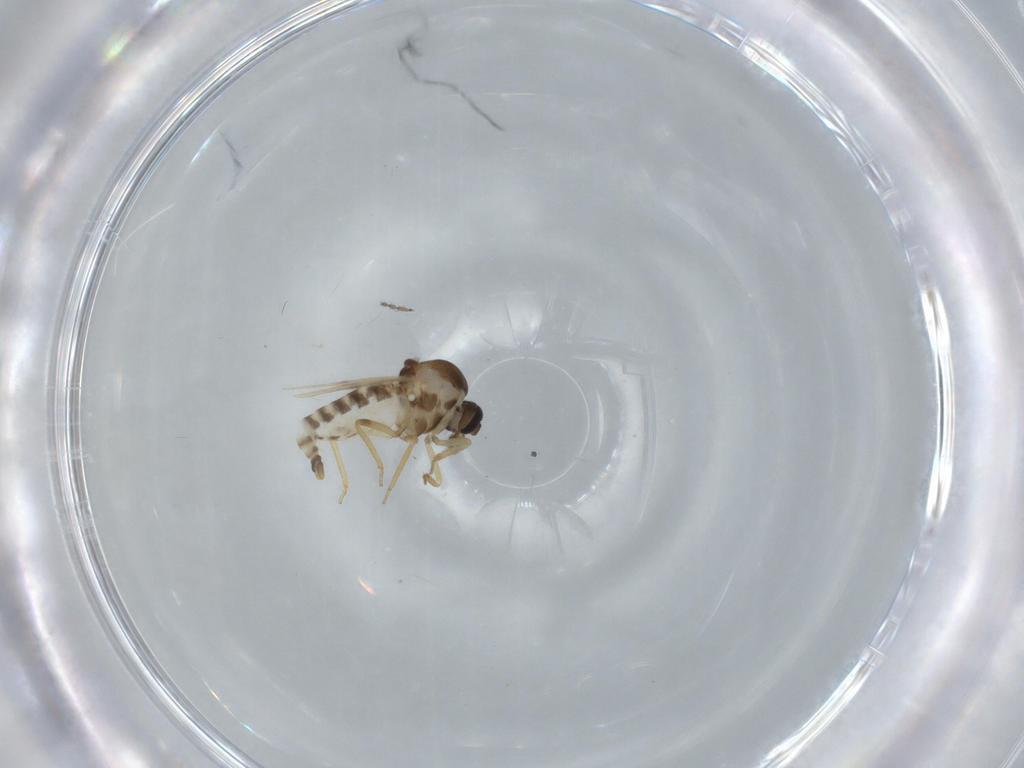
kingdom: Animalia
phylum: Arthropoda
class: Insecta
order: Diptera
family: Ceratopogonidae
